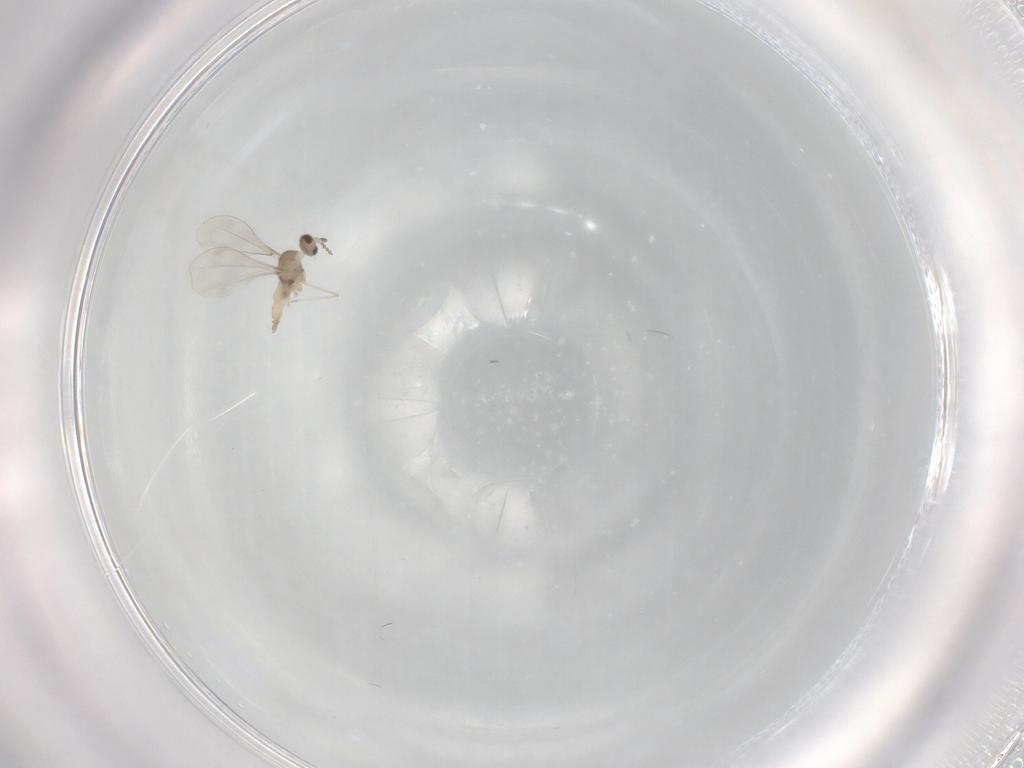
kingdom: Animalia
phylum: Arthropoda
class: Insecta
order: Diptera
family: Cecidomyiidae
